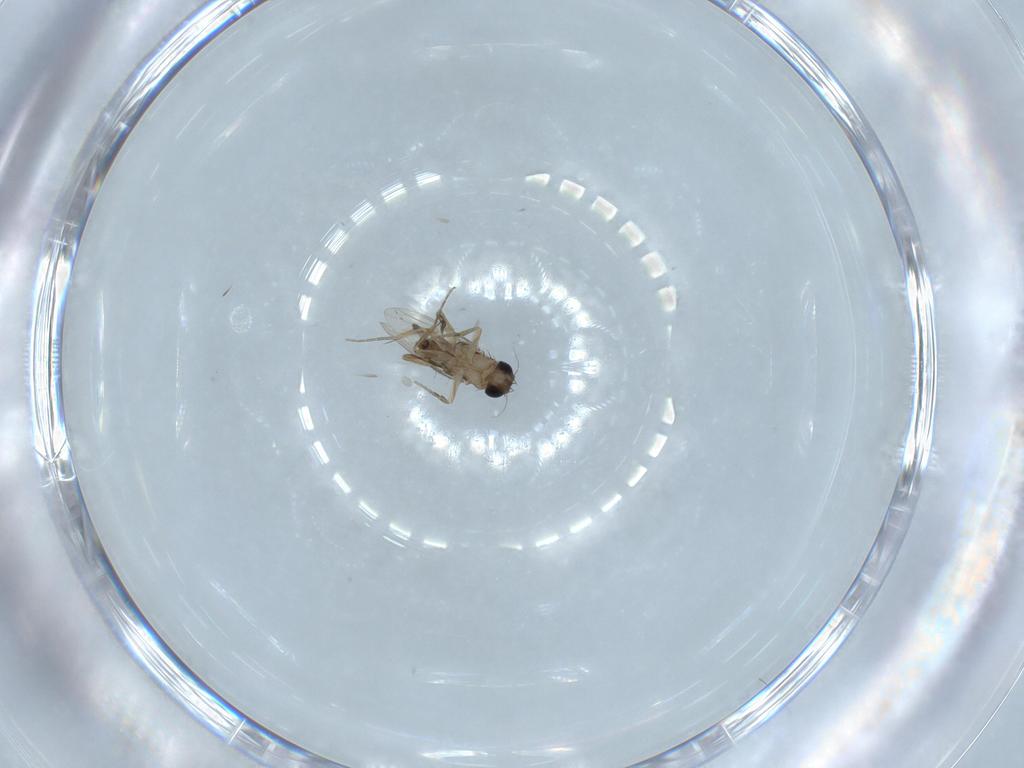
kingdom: Animalia
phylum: Arthropoda
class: Insecta
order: Diptera
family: Phoridae
